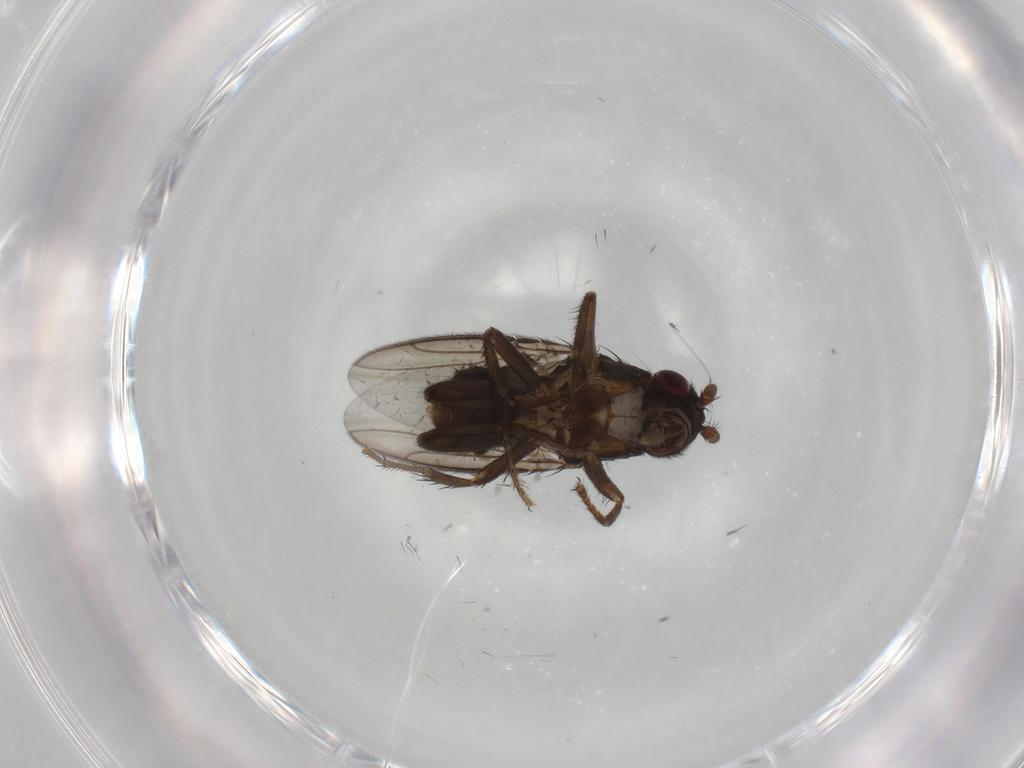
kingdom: Animalia
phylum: Arthropoda
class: Insecta
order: Diptera
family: Sphaeroceridae
